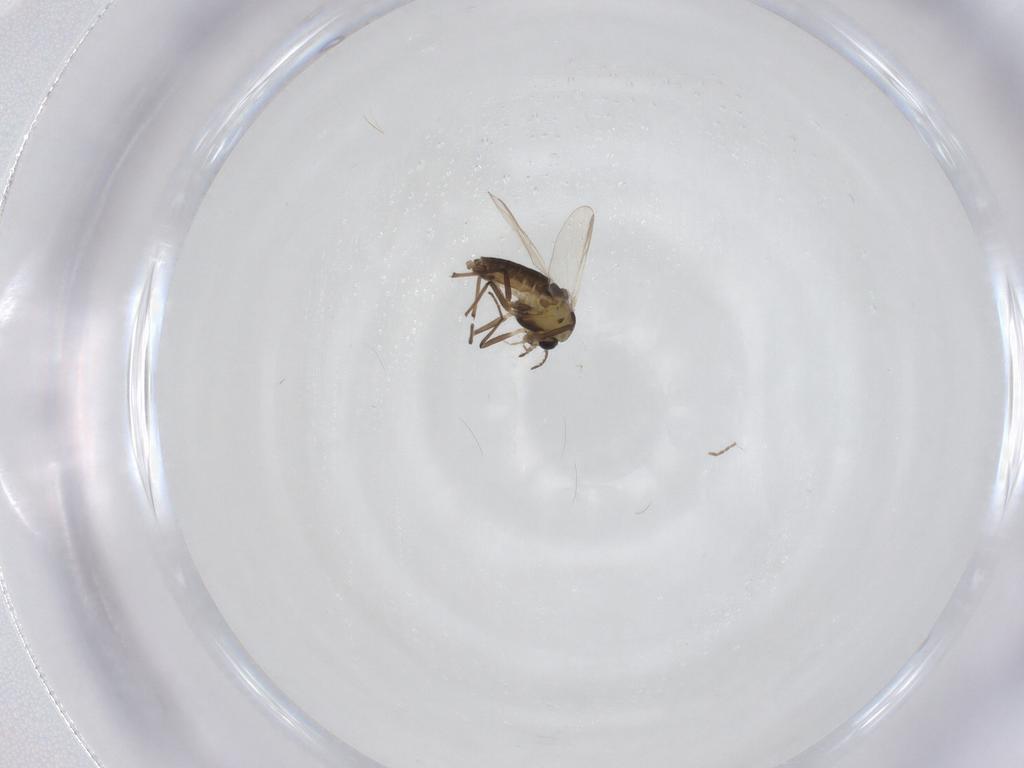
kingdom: Animalia
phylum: Arthropoda
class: Insecta
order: Diptera
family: Chironomidae
